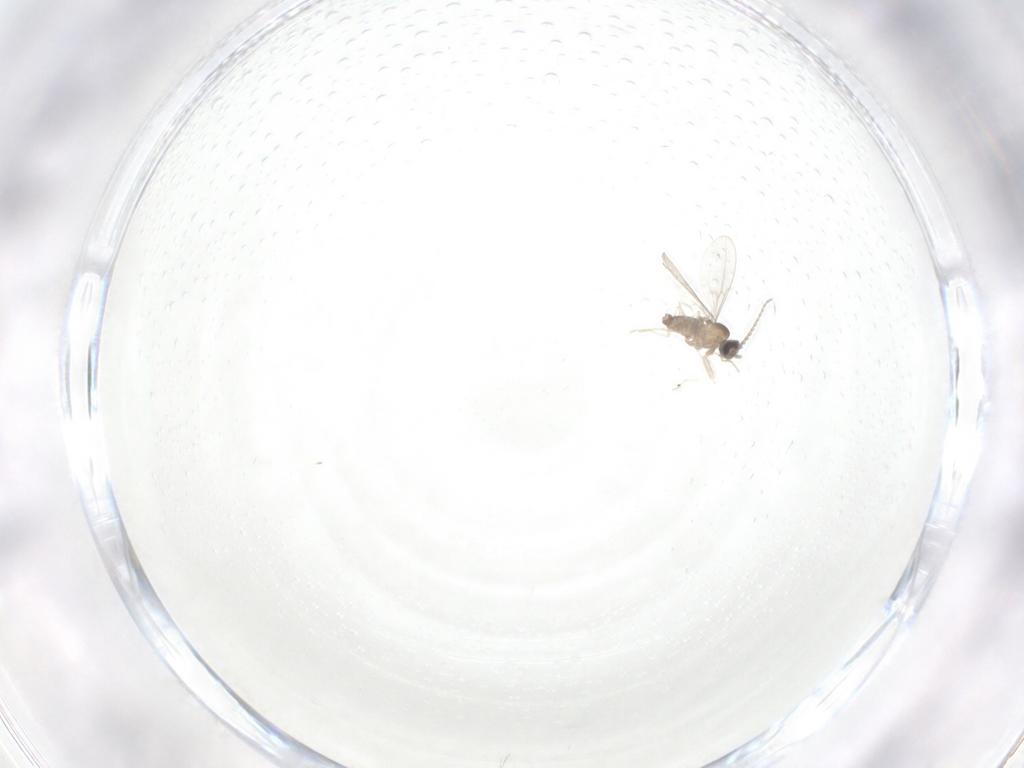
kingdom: Animalia
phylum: Arthropoda
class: Insecta
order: Diptera
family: Cecidomyiidae
